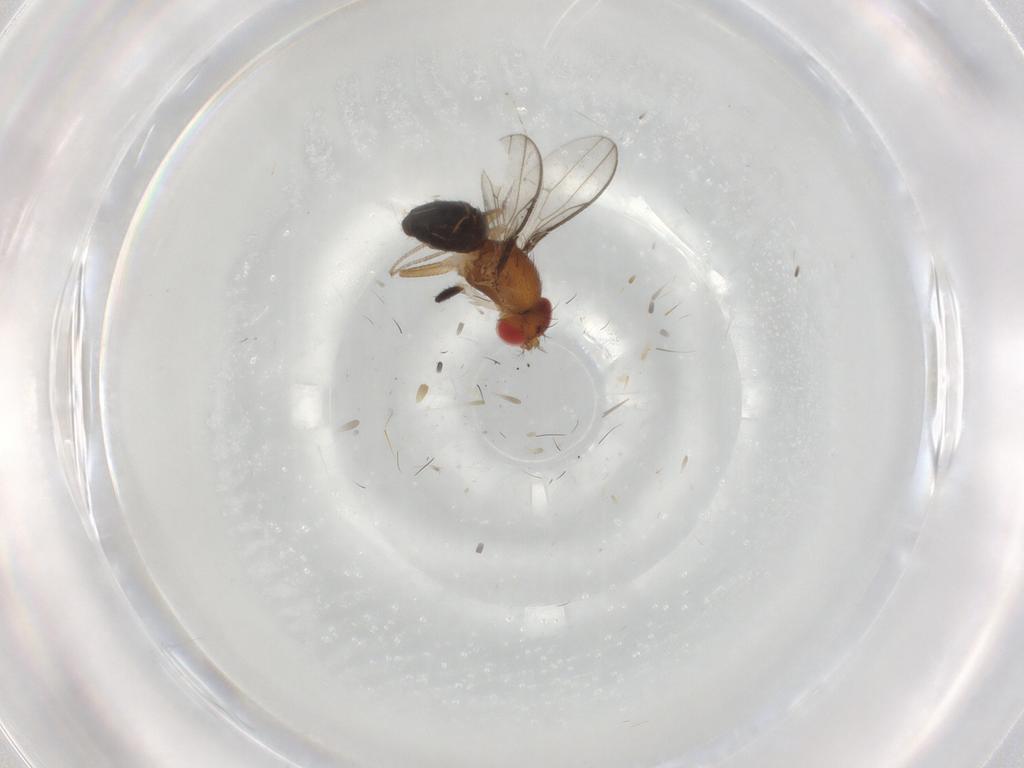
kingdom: Animalia
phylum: Arthropoda
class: Insecta
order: Diptera
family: Drosophilidae
